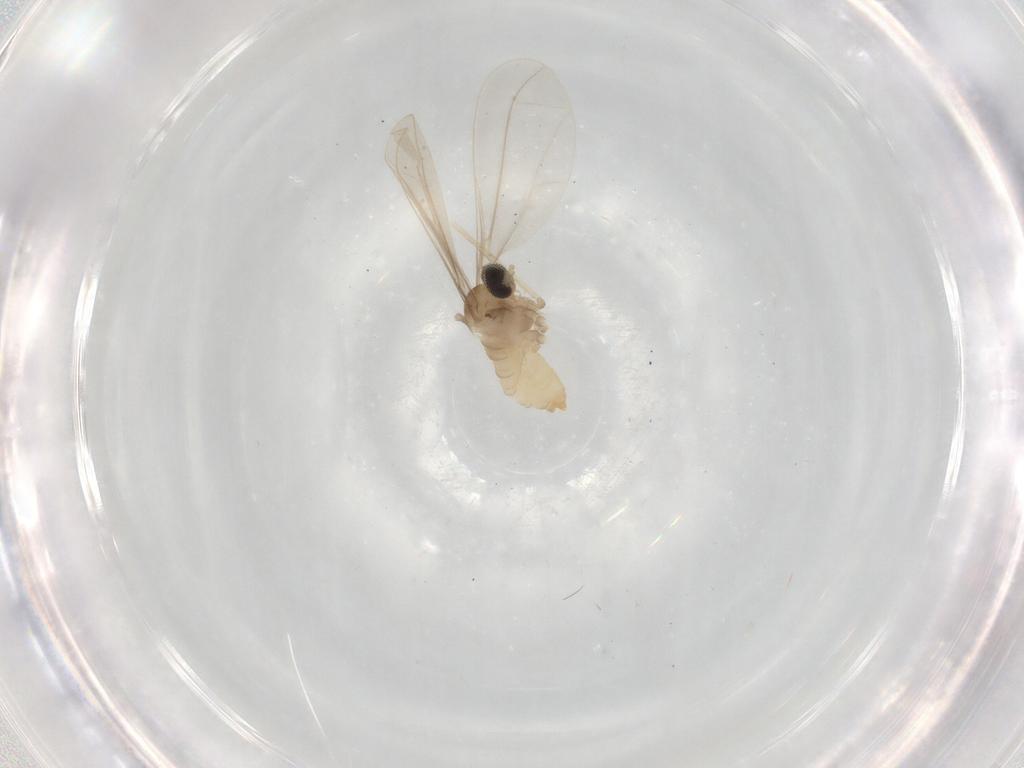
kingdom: Animalia
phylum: Arthropoda
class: Insecta
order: Diptera
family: Cecidomyiidae
